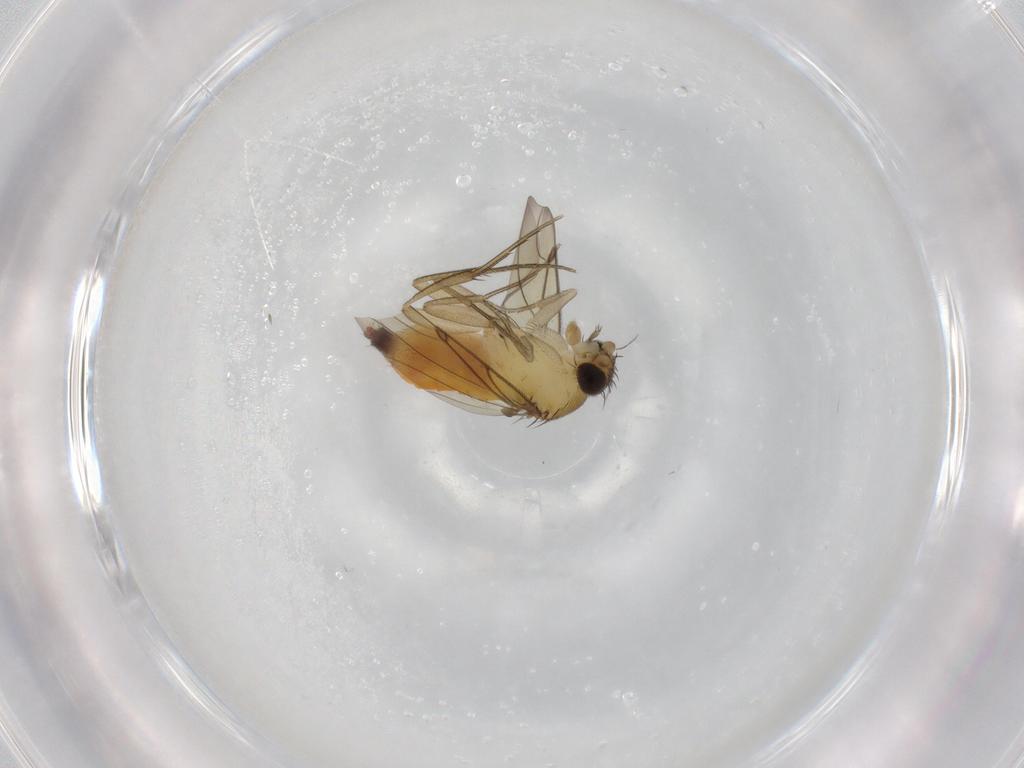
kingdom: Animalia
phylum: Arthropoda
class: Insecta
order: Diptera
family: Phoridae
